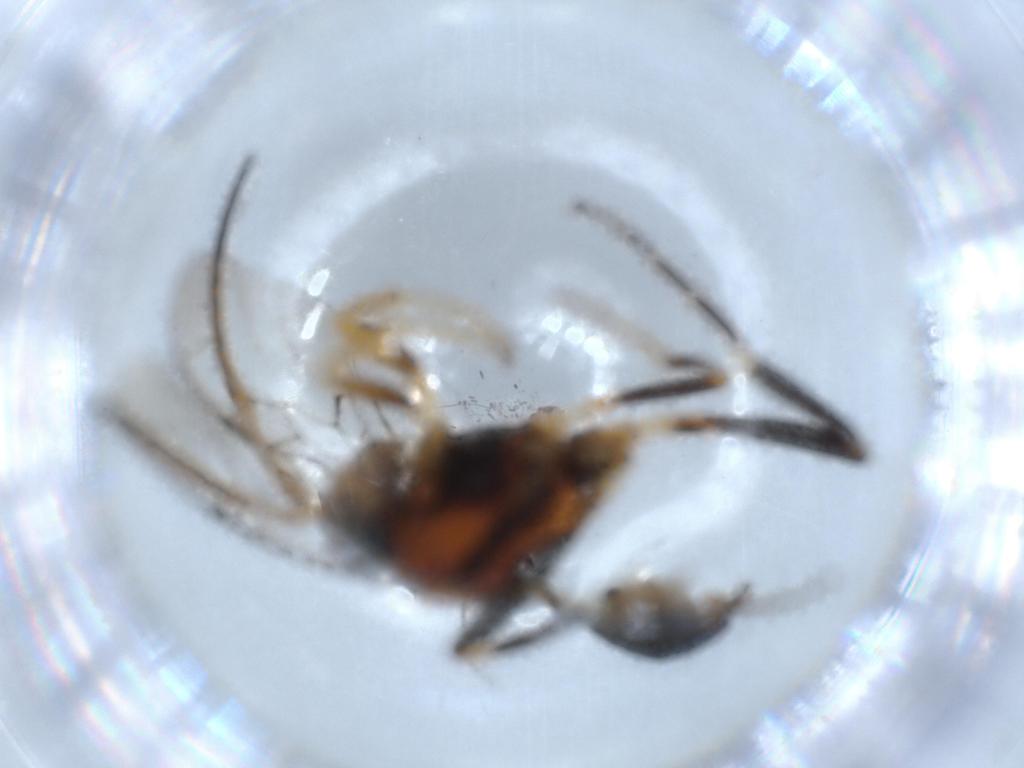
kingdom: Animalia
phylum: Arthropoda
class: Insecta
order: Hymenoptera
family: Evaniidae
